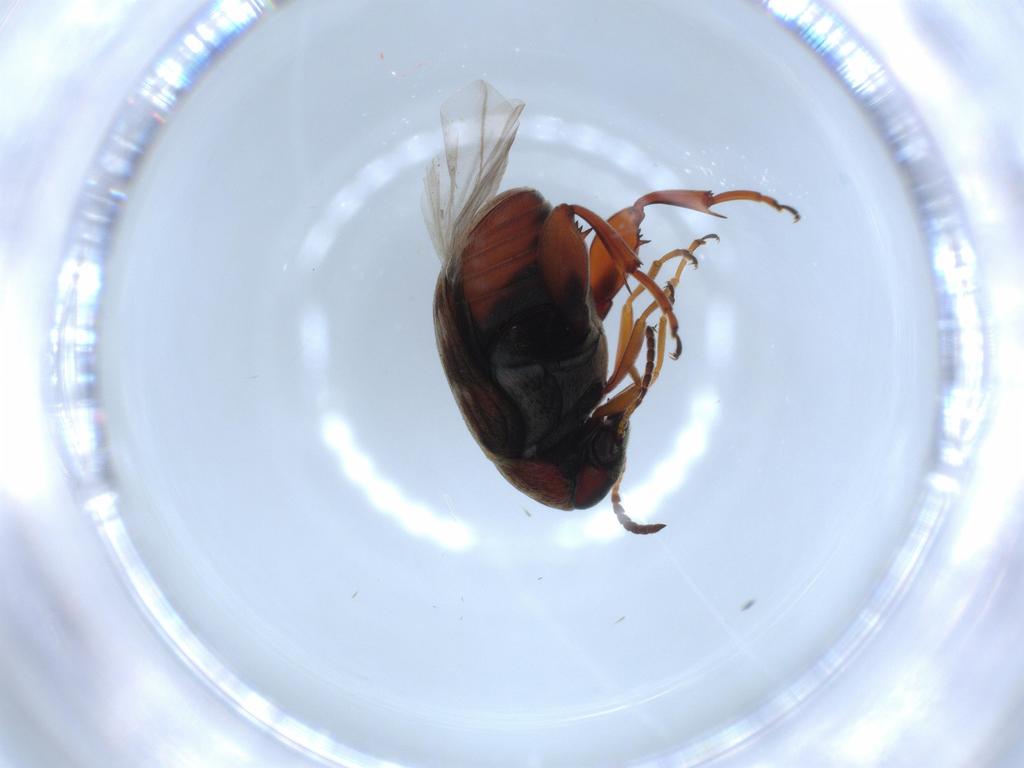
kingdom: Animalia
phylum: Arthropoda
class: Insecta
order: Coleoptera
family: Chrysomelidae
